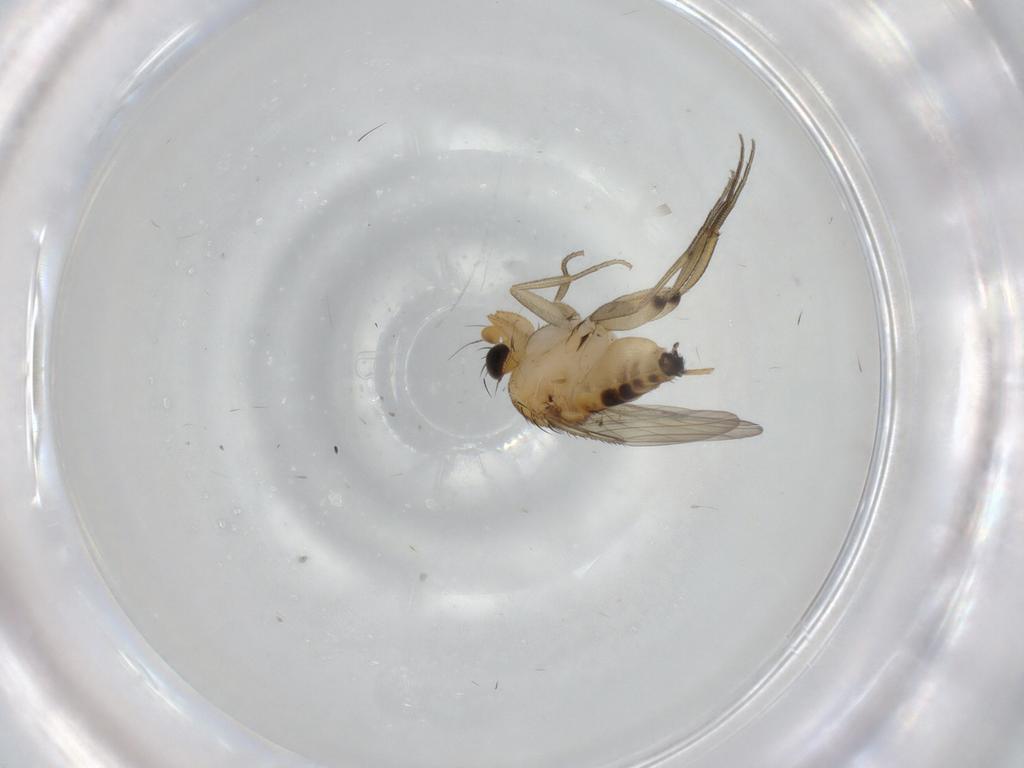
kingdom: Animalia
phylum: Arthropoda
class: Insecta
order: Diptera
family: Phoridae
